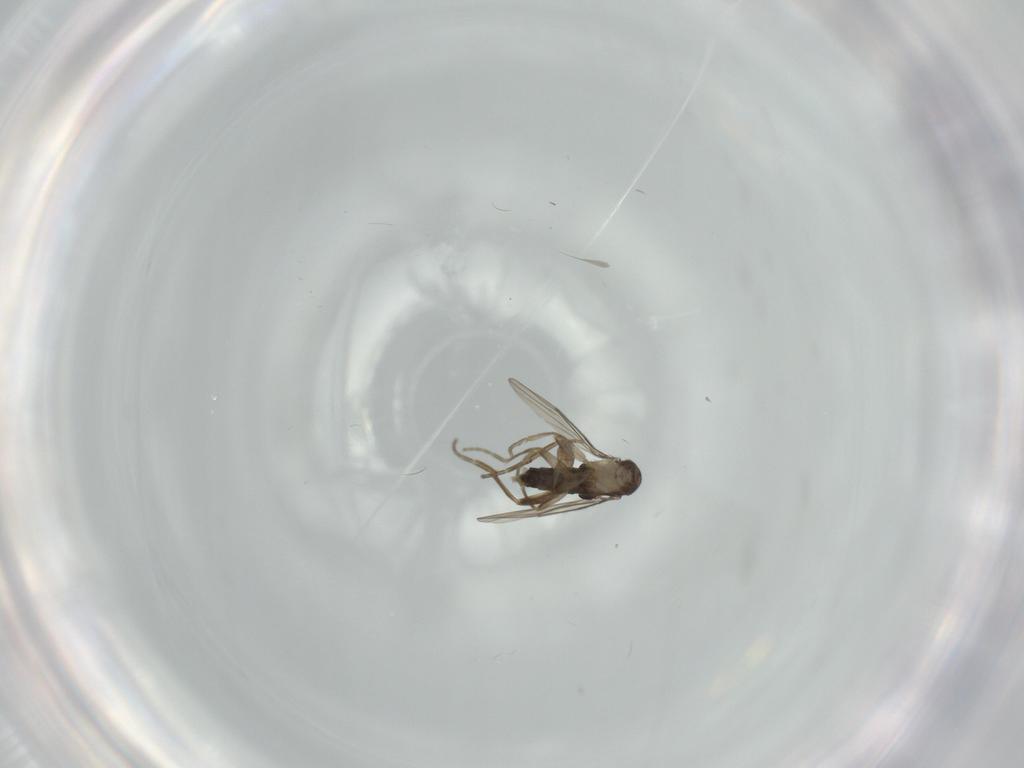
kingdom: Animalia
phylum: Arthropoda
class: Insecta
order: Diptera
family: Phoridae
